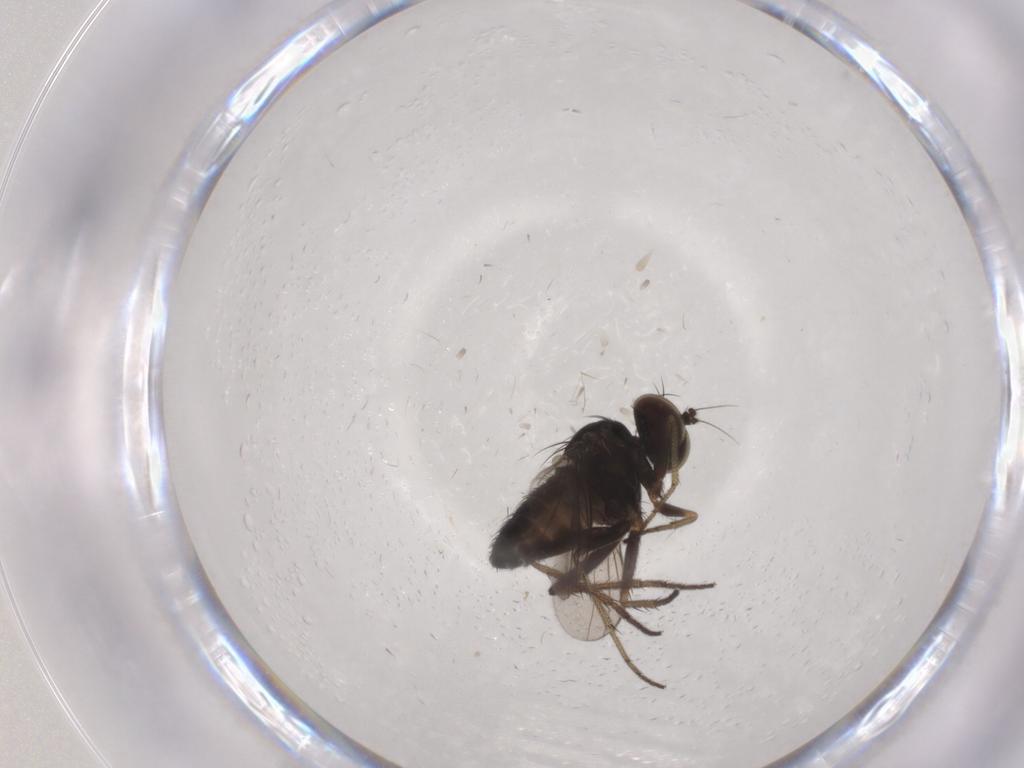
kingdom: Animalia
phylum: Arthropoda
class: Insecta
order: Diptera
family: Dolichopodidae
